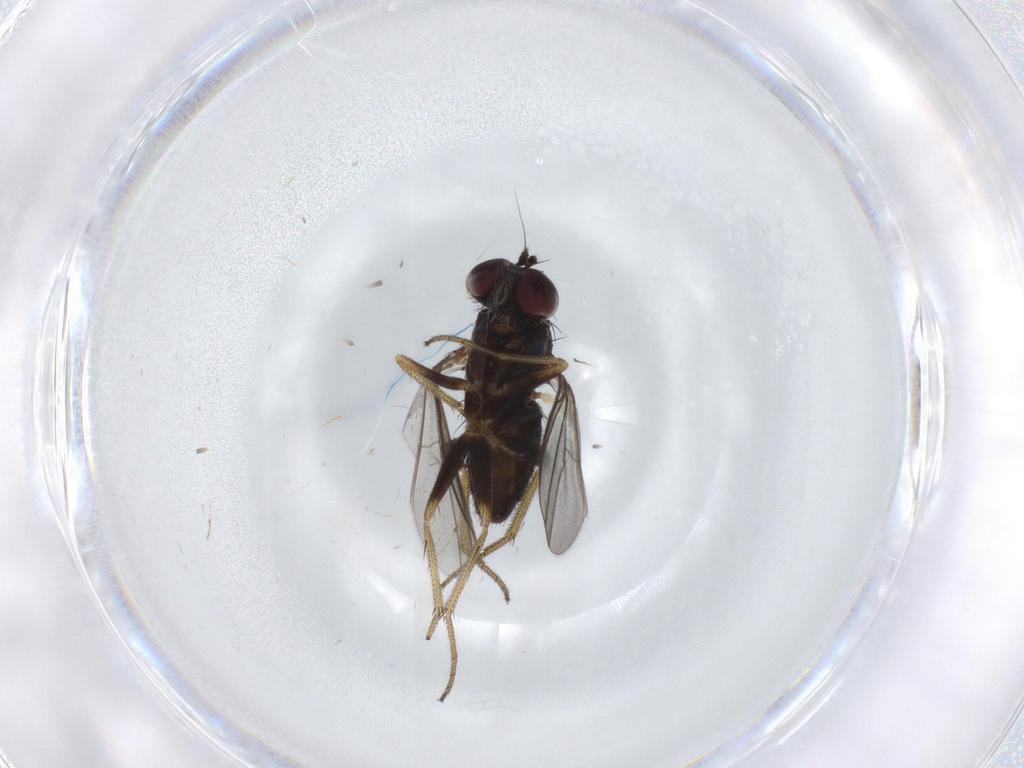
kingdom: Animalia
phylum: Arthropoda
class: Insecta
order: Diptera
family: Dolichopodidae
